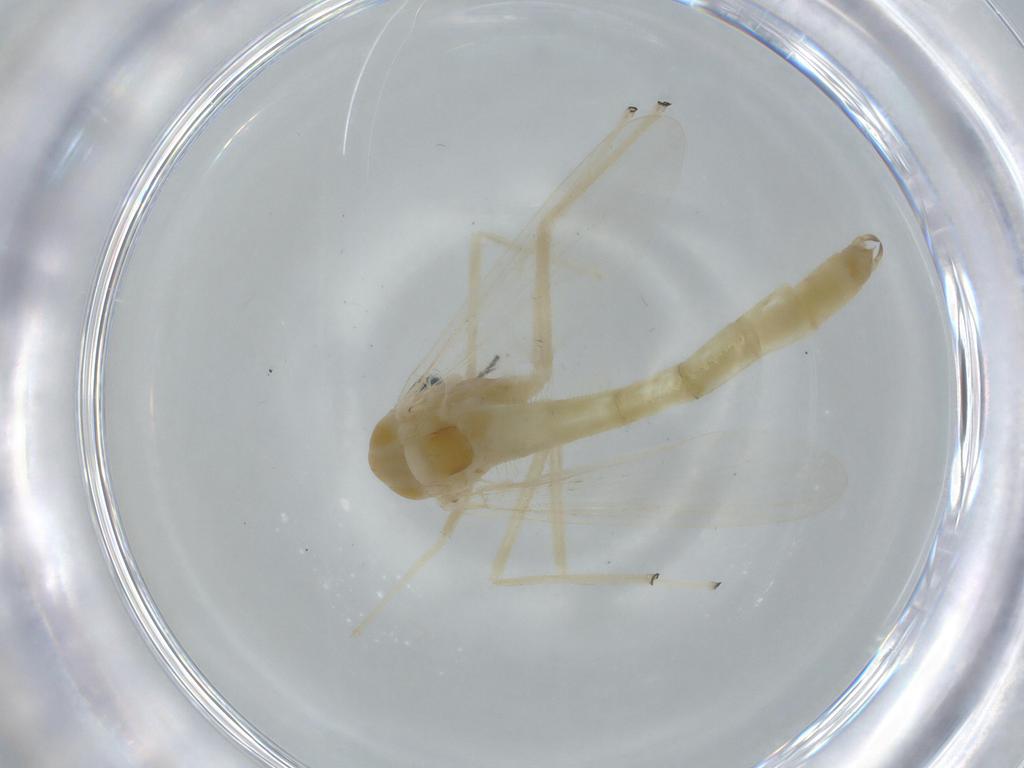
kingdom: Animalia
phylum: Arthropoda
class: Insecta
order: Diptera
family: Chironomidae
